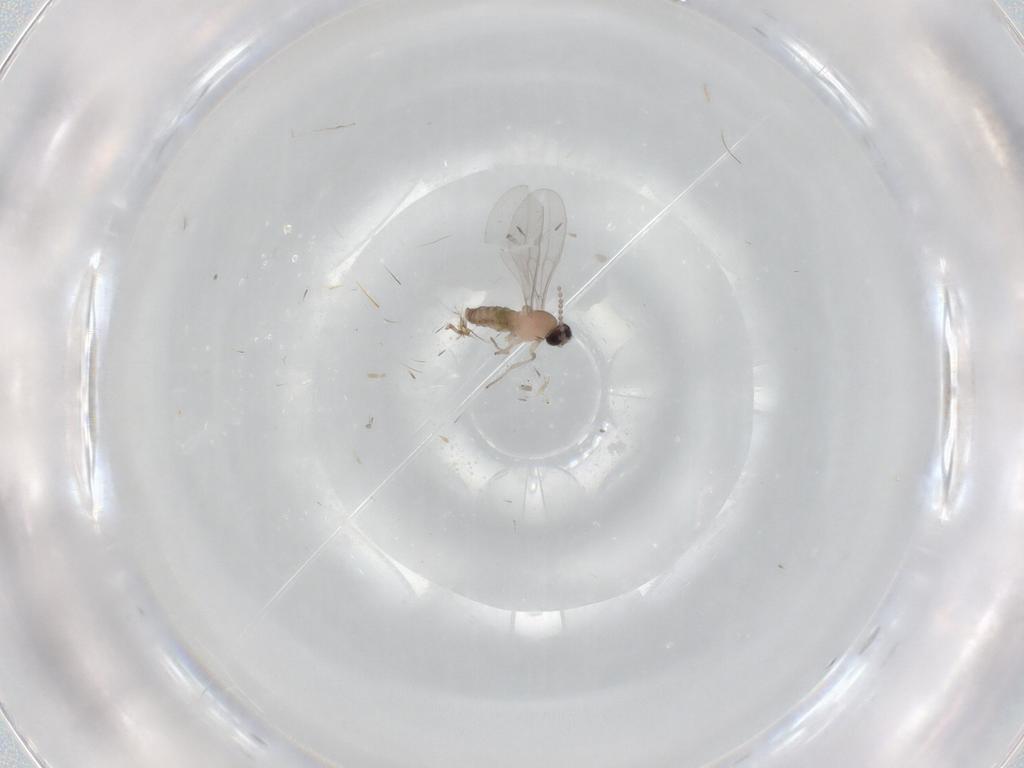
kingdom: Animalia
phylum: Arthropoda
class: Insecta
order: Diptera
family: Cecidomyiidae
